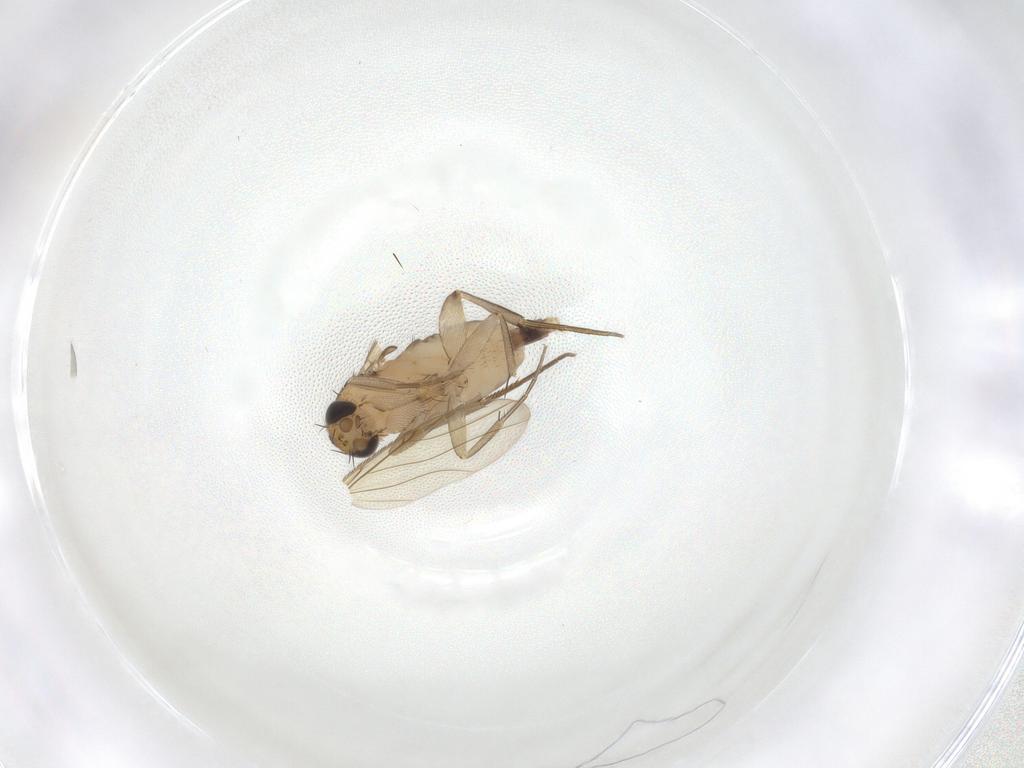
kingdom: Animalia
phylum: Arthropoda
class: Insecta
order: Diptera
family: Phoridae
